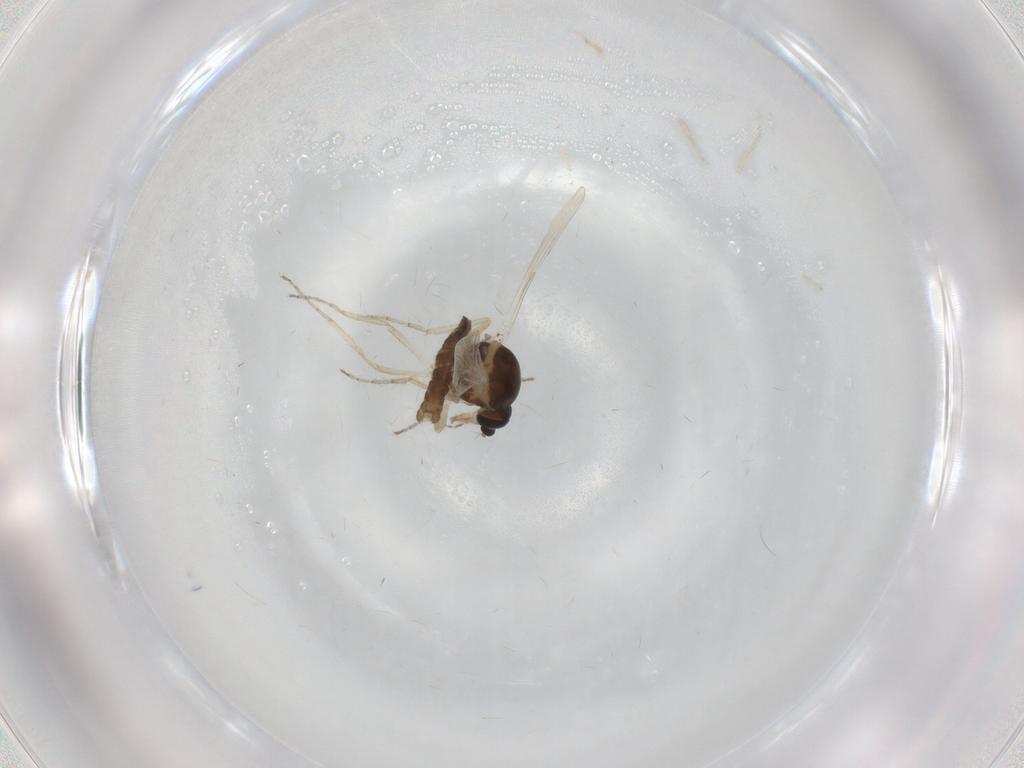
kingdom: Animalia
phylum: Arthropoda
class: Insecta
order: Diptera
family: Ceratopogonidae
